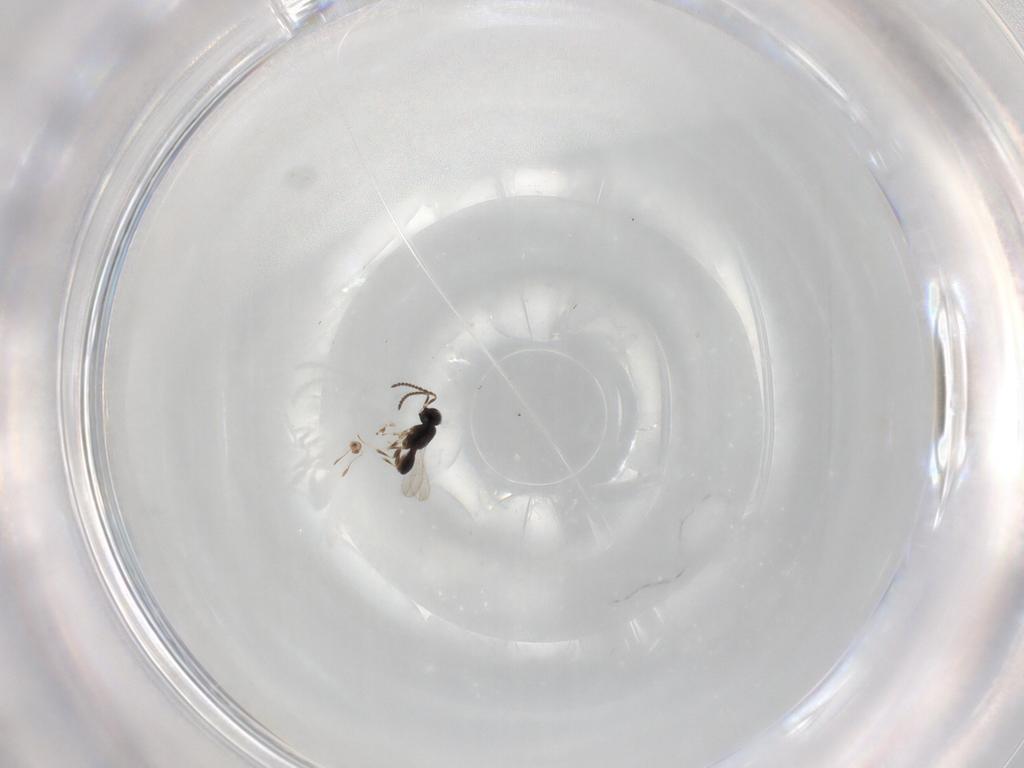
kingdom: Animalia
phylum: Arthropoda
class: Insecta
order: Hymenoptera
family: Scelionidae
